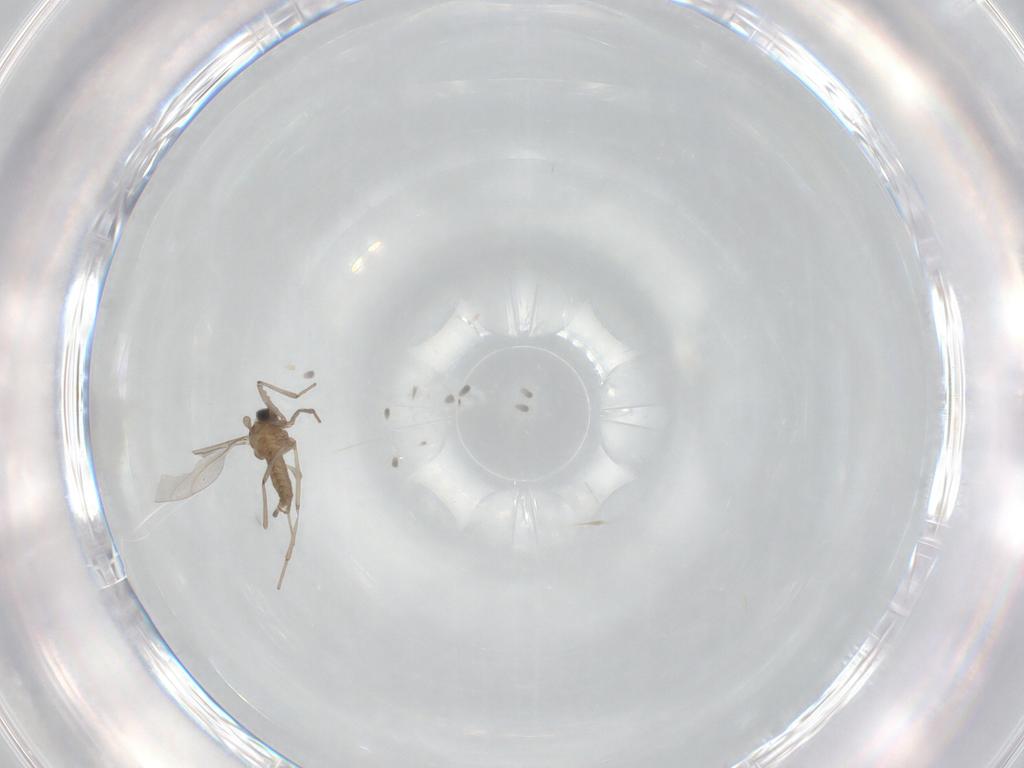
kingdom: Animalia
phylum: Arthropoda
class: Insecta
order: Diptera
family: Cecidomyiidae
